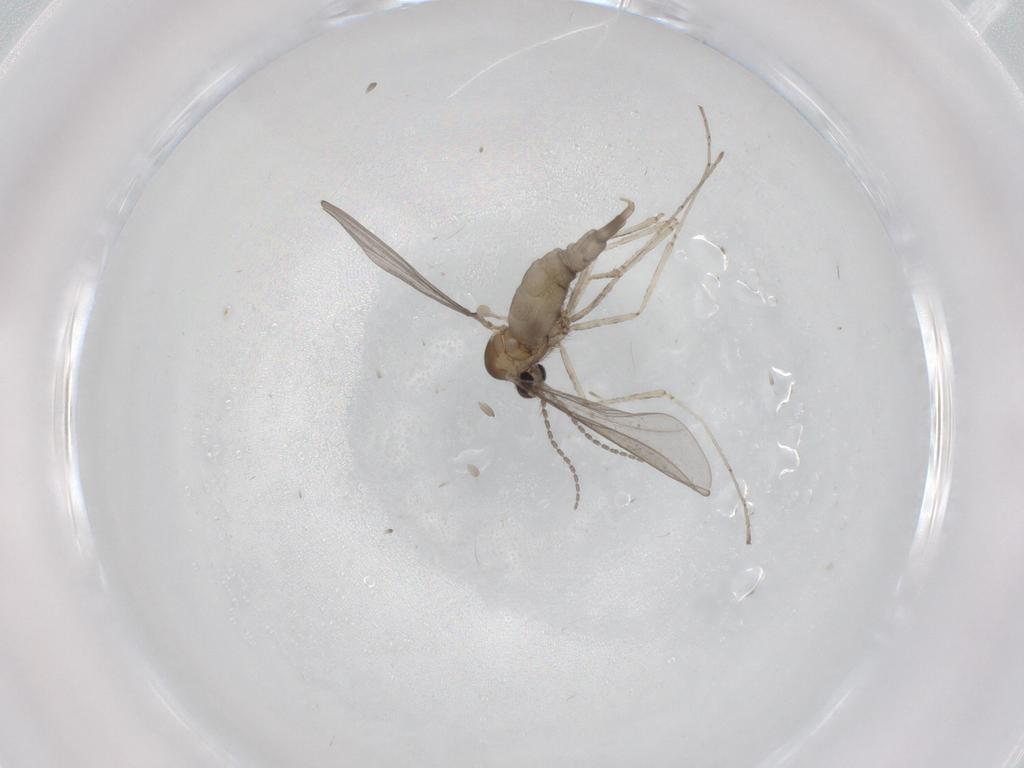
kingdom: Animalia
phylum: Arthropoda
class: Insecta
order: Diptera
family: Cecidomyiidae
